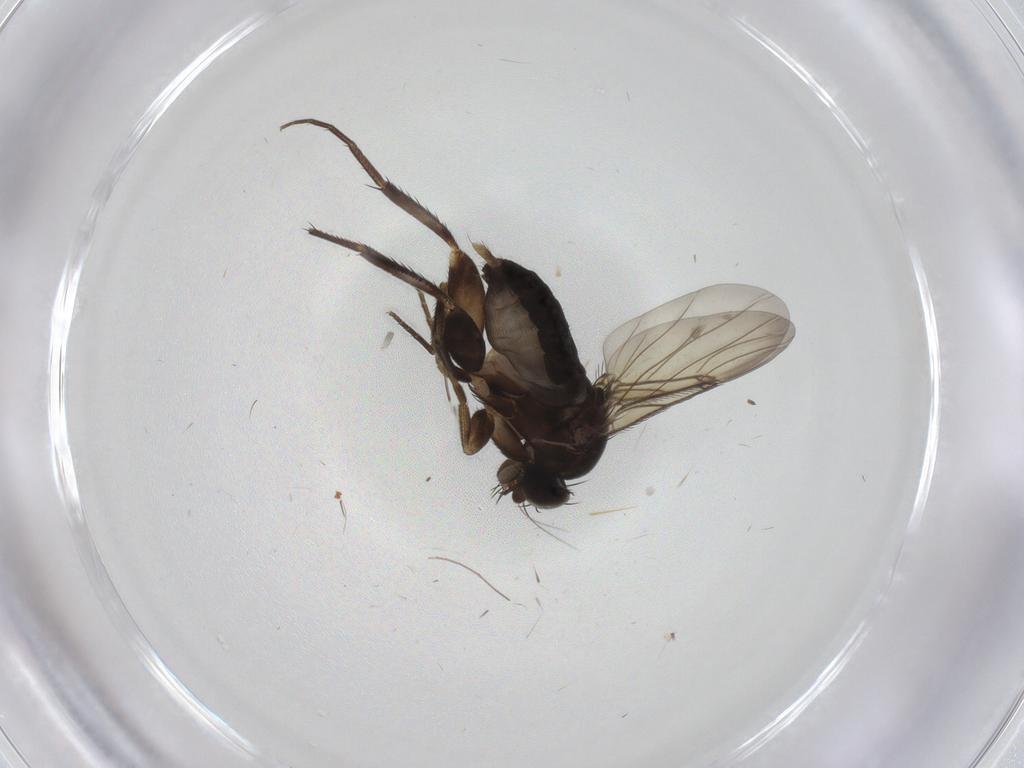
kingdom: Animalia
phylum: Arthropoda
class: Insecta
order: Diptera
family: Phoridae
